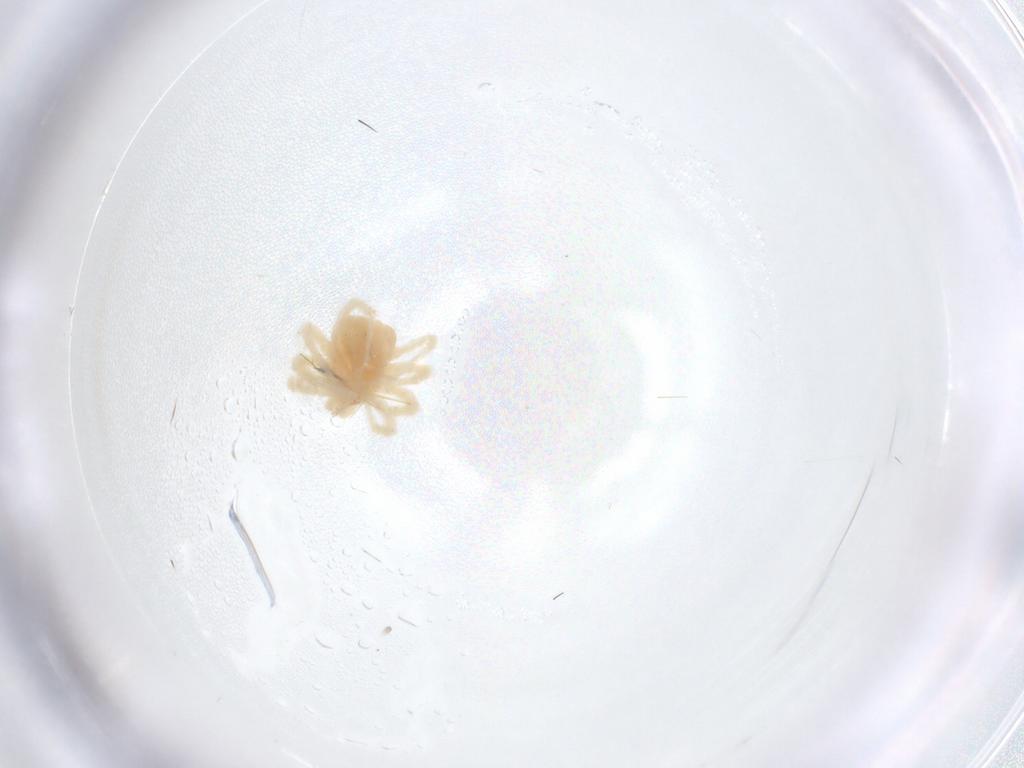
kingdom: Animalia
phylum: Arthropoda
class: Arachnida
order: Trombidiformes
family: Anystidae
